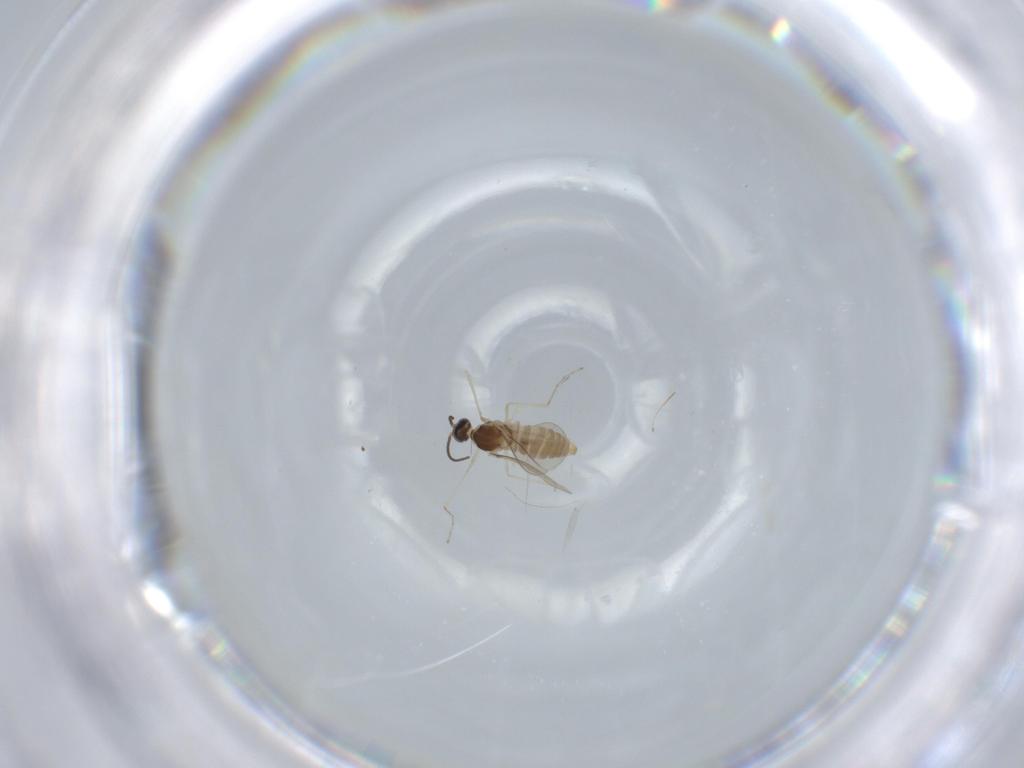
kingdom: Animalia
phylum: Arthropoda
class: Insecta
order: Diptera
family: Cecidomyiidae
